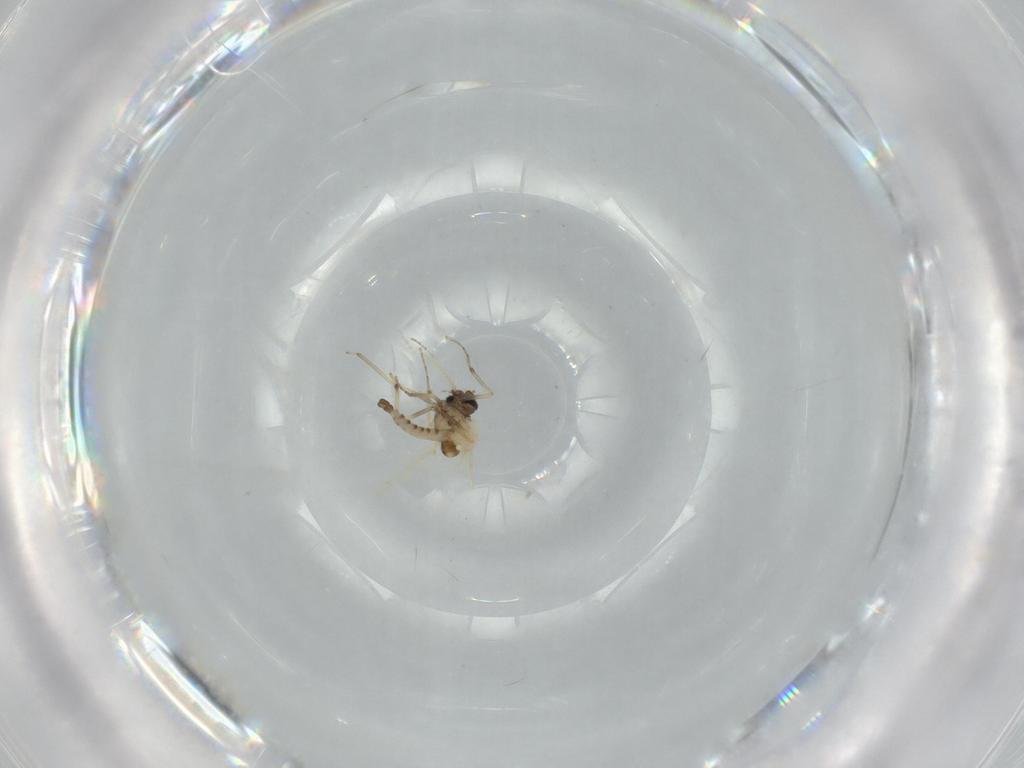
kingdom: Animalia
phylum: Arthropoda
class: Insecta
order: Diptera
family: Ceratopogonidae
